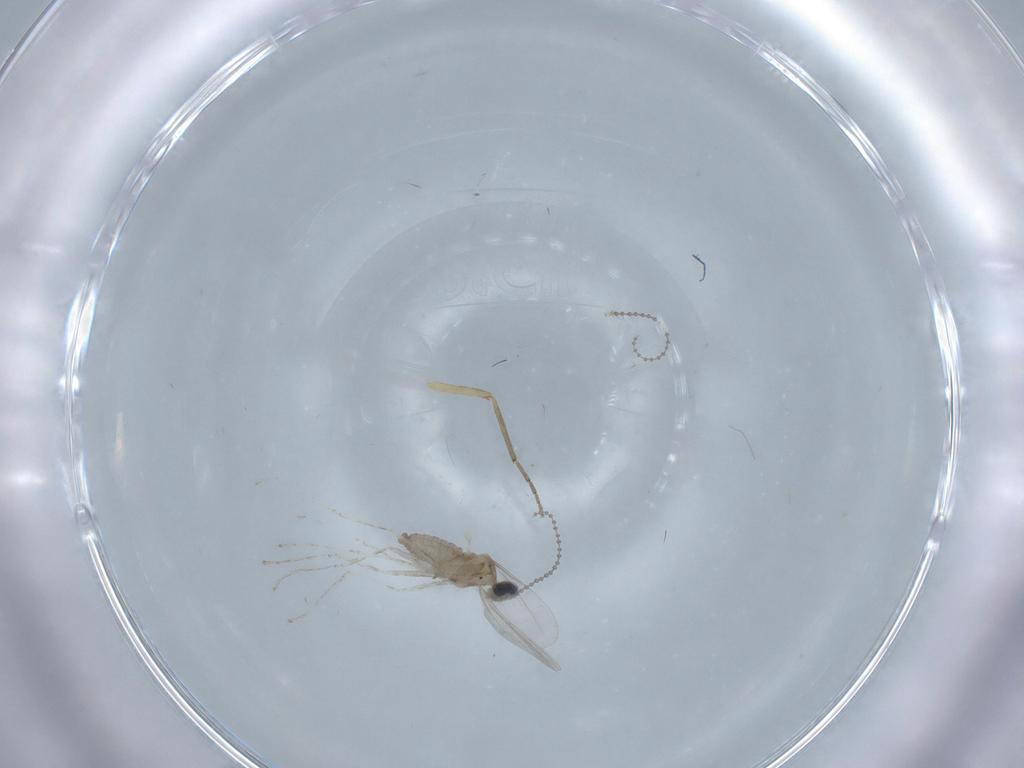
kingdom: Animalia
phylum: Arthropoda
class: Insecta
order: Diptera
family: Cecidomyiidae
